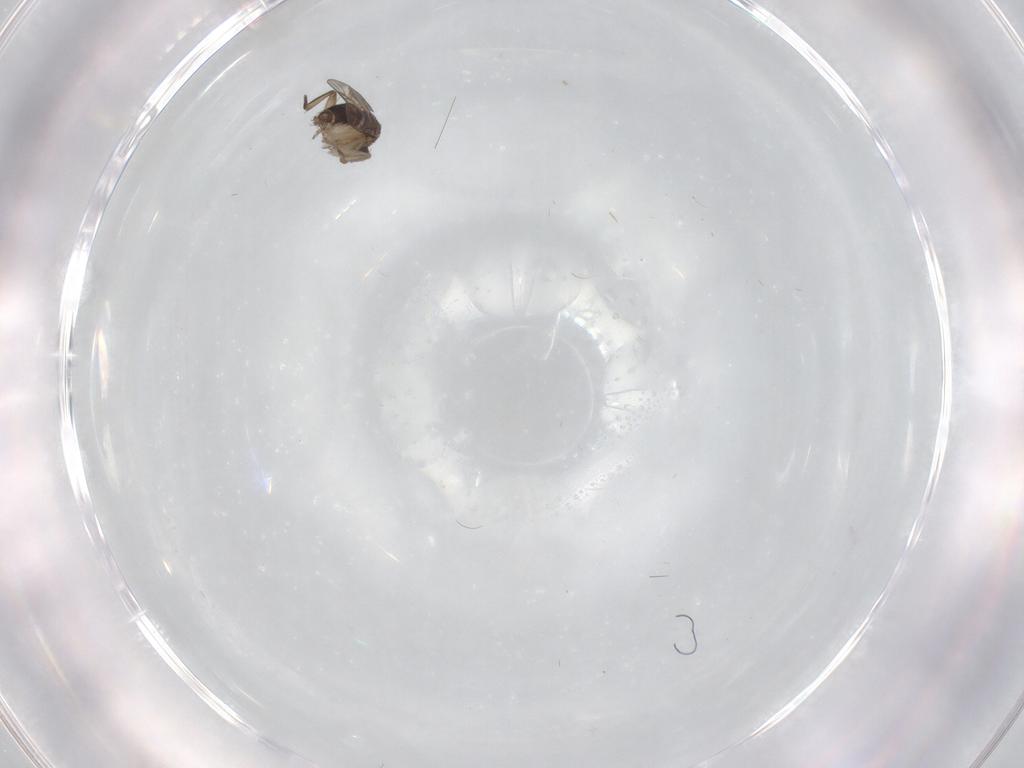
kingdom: Animalia
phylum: Arthropoda
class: Insecta
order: Diptera
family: Phoridae
